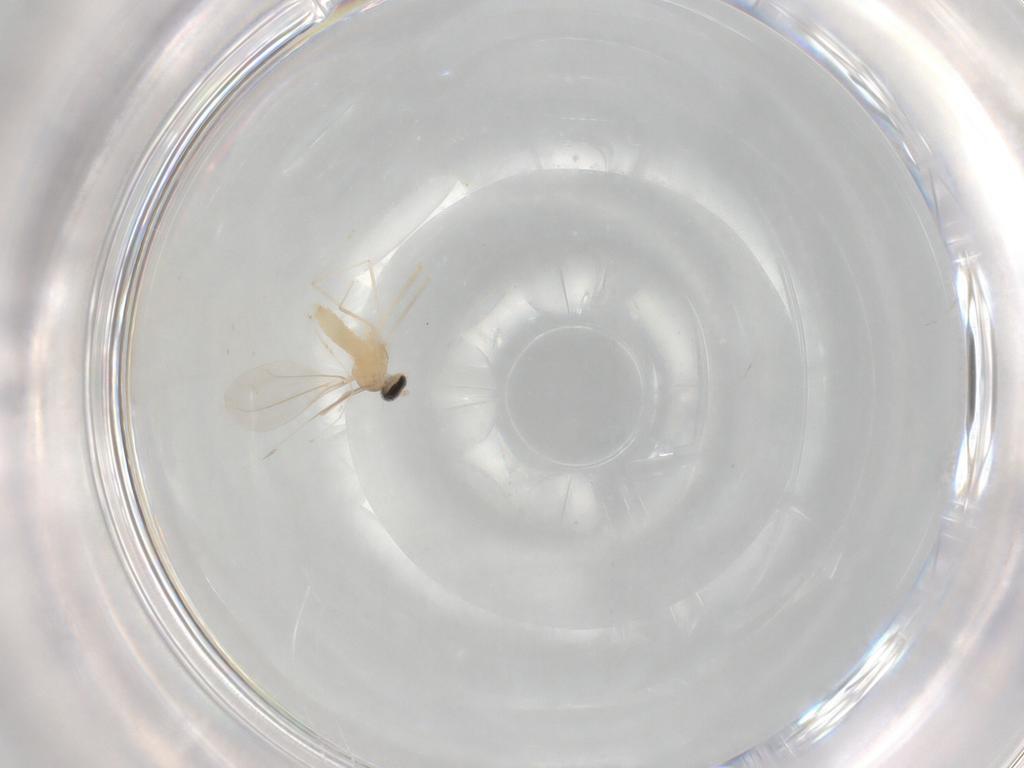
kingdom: Animalia
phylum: Arthropoda
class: Insecta
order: Diptera
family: Cecidomyiidae
